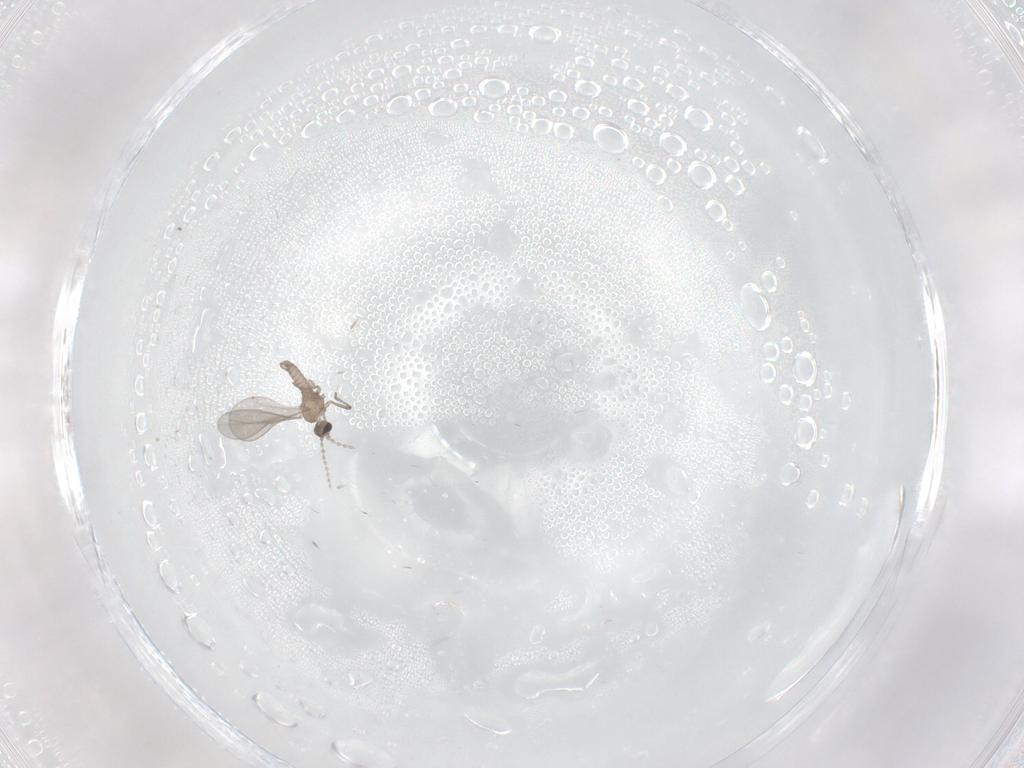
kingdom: Animalia
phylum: Arthropoda
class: Insecta
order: Diptera
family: Cecidomyiidae
